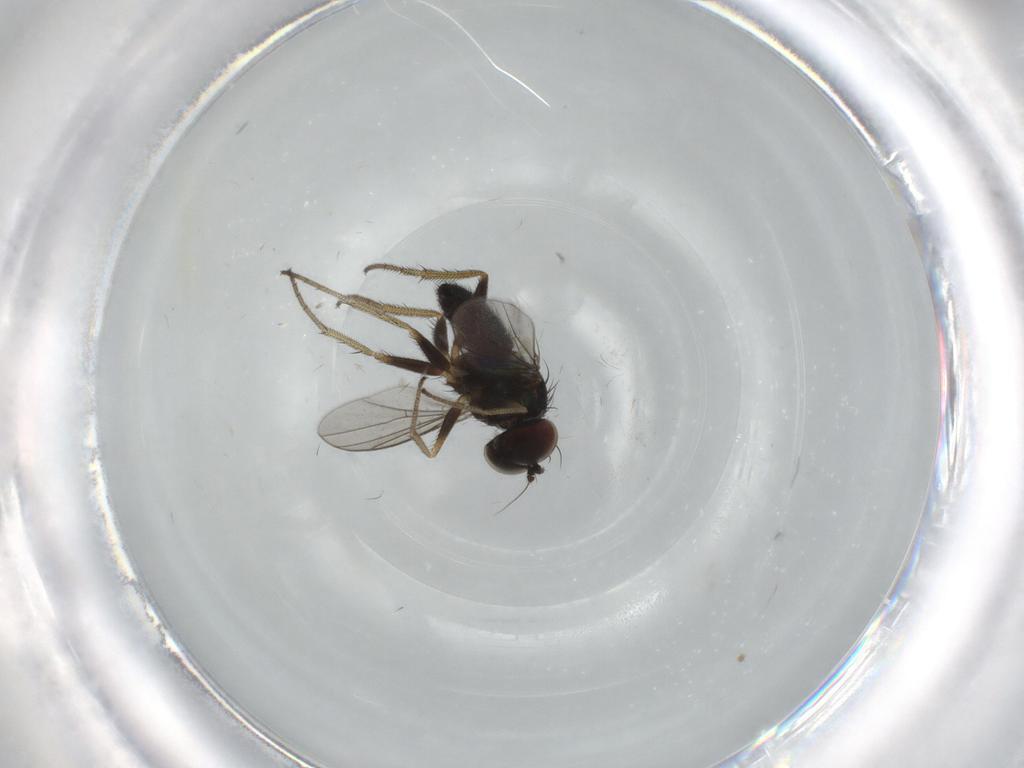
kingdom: Animalia
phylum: Arthropoda
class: Insecta
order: Diptera
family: Dolichopodidae
